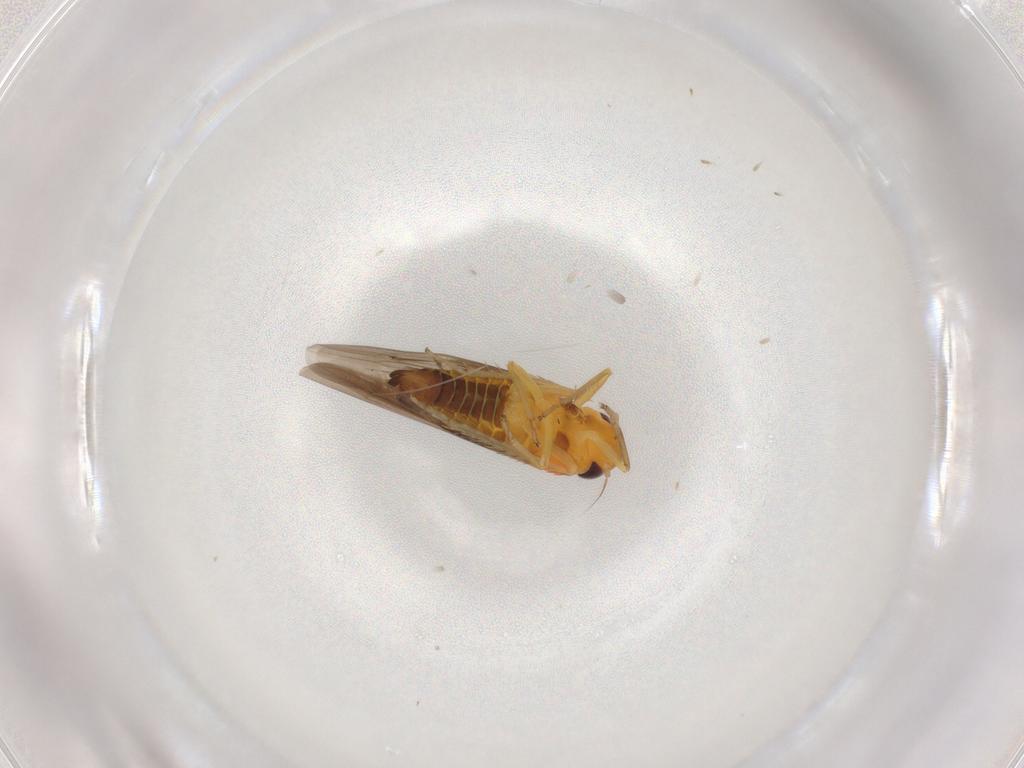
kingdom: Animalia
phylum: Arthropoda
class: Insecta
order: Hemiptera
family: Cicadellidae
